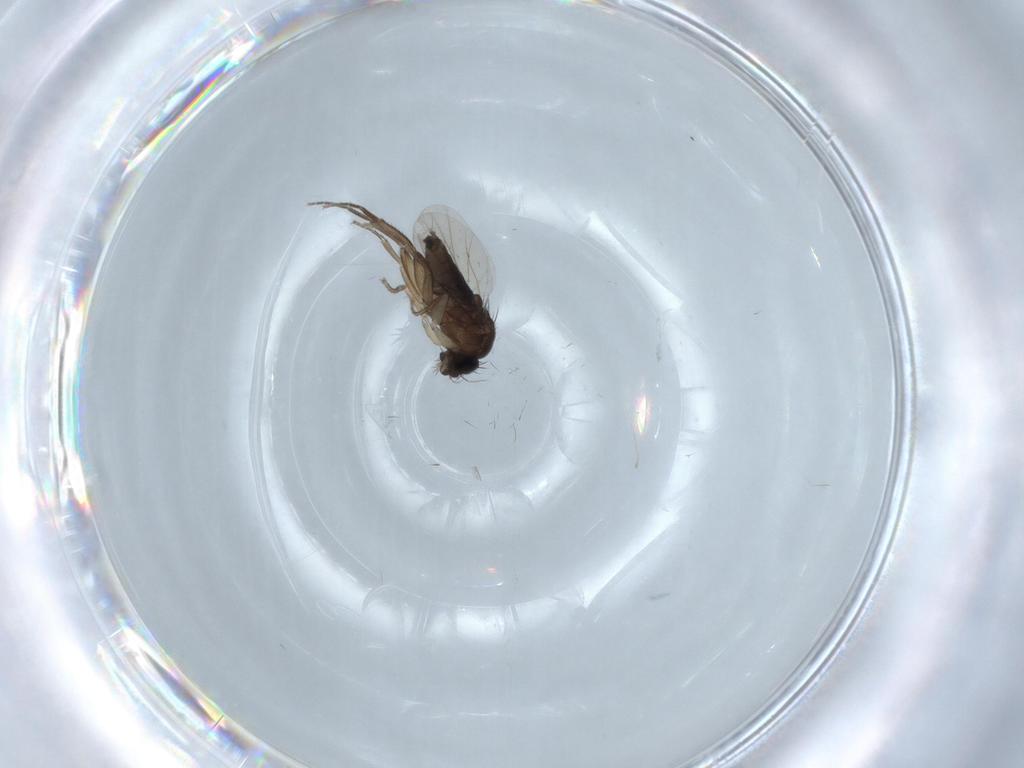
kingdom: Animalia
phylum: Arthropoda
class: Insecta
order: Diptera
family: Phoridae
